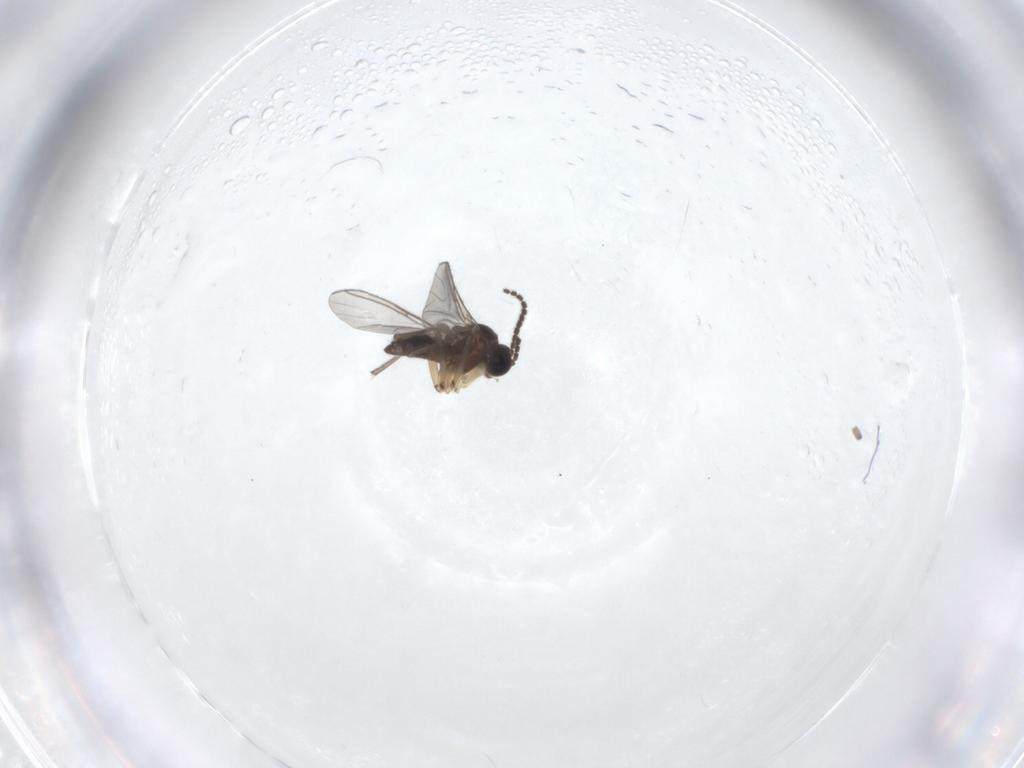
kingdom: Animalia
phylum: Arthropoda
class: Insecta
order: Diptera
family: Sciaridae
